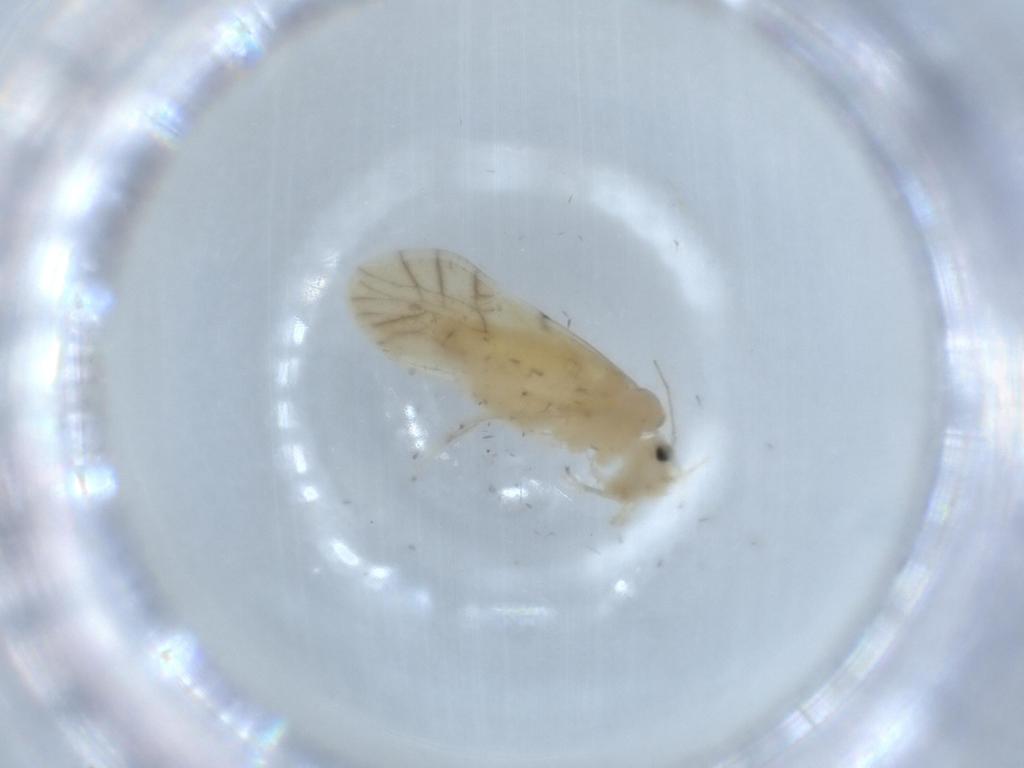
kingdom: Animalia
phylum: Arthropoda
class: Insecta
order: Psocodea
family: Caeciliusidae
